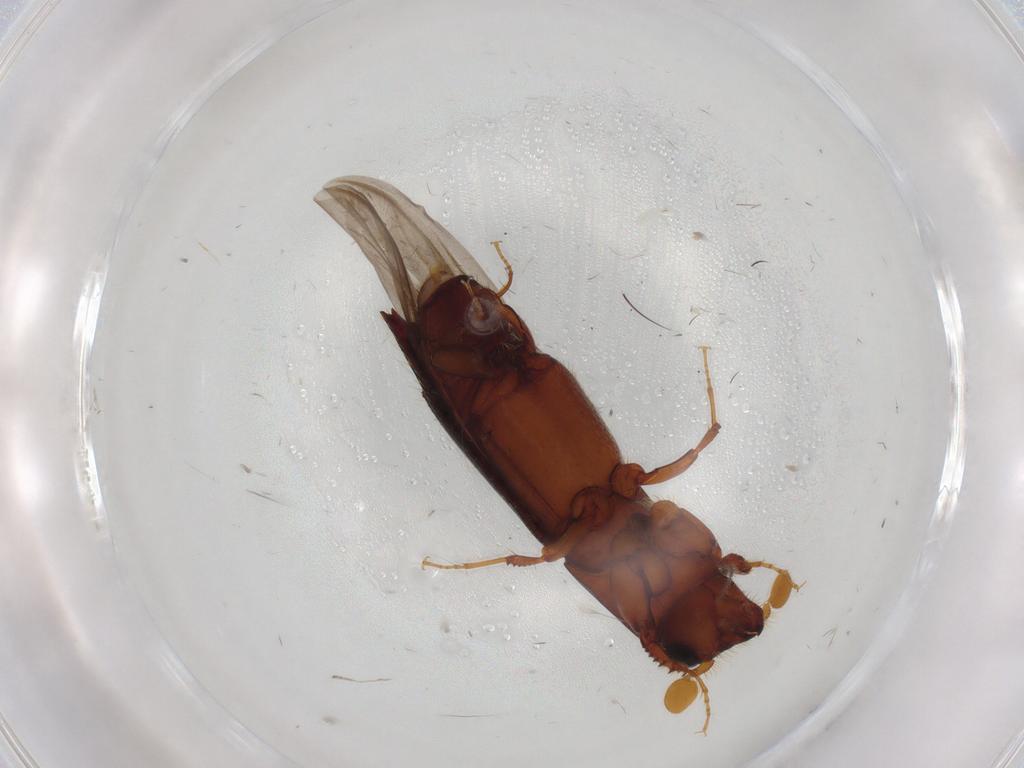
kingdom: Animalia
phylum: Arthropoda
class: Insecta
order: Coleoptera
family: Curculionidae
